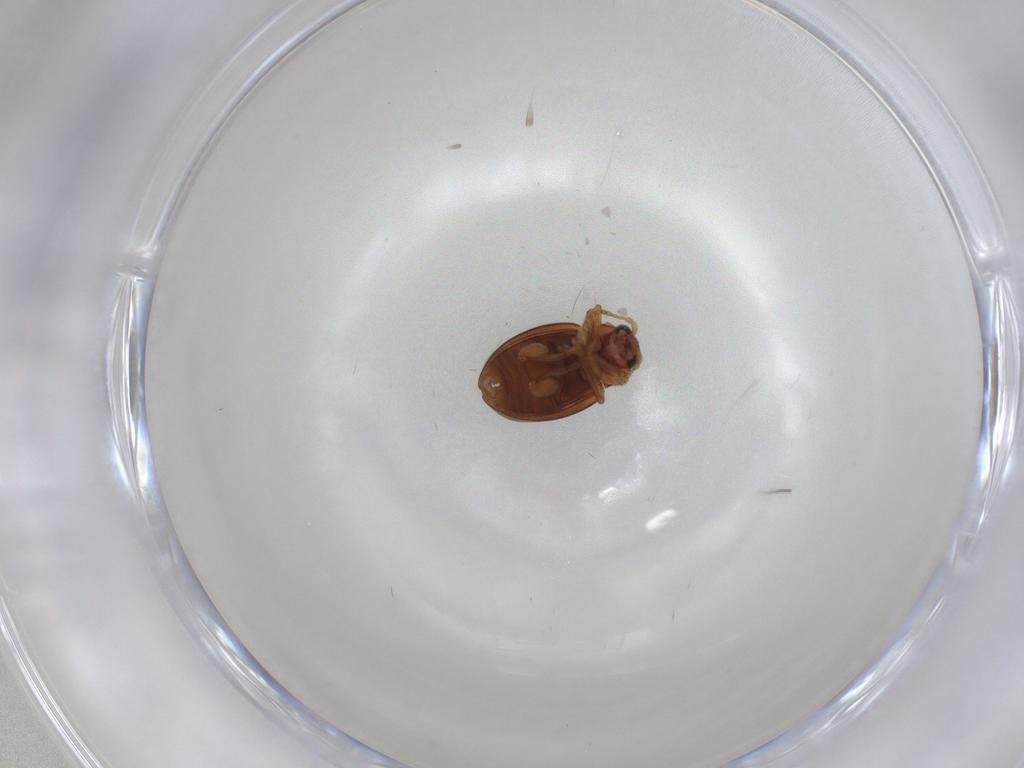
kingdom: Animalia
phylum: Arthropoda
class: Insecta
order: Coleoptera
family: Chrysomelidae
